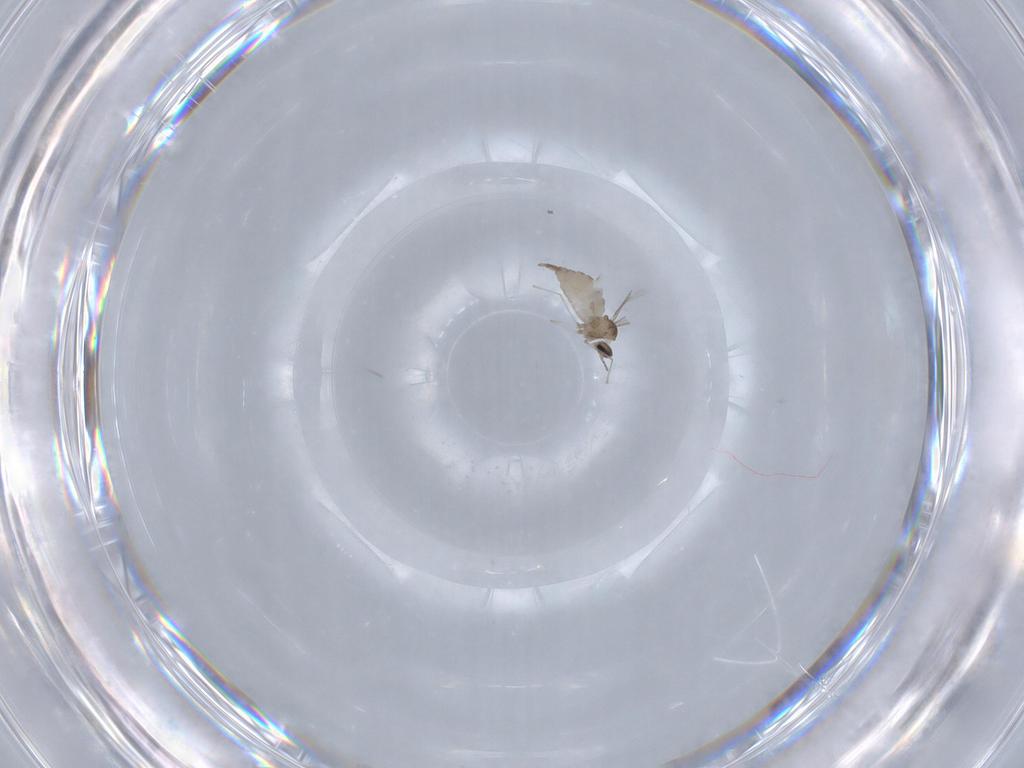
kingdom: Animalia
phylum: Arthropoda
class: Insecta
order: Diptera
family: Cecidomyiidae
